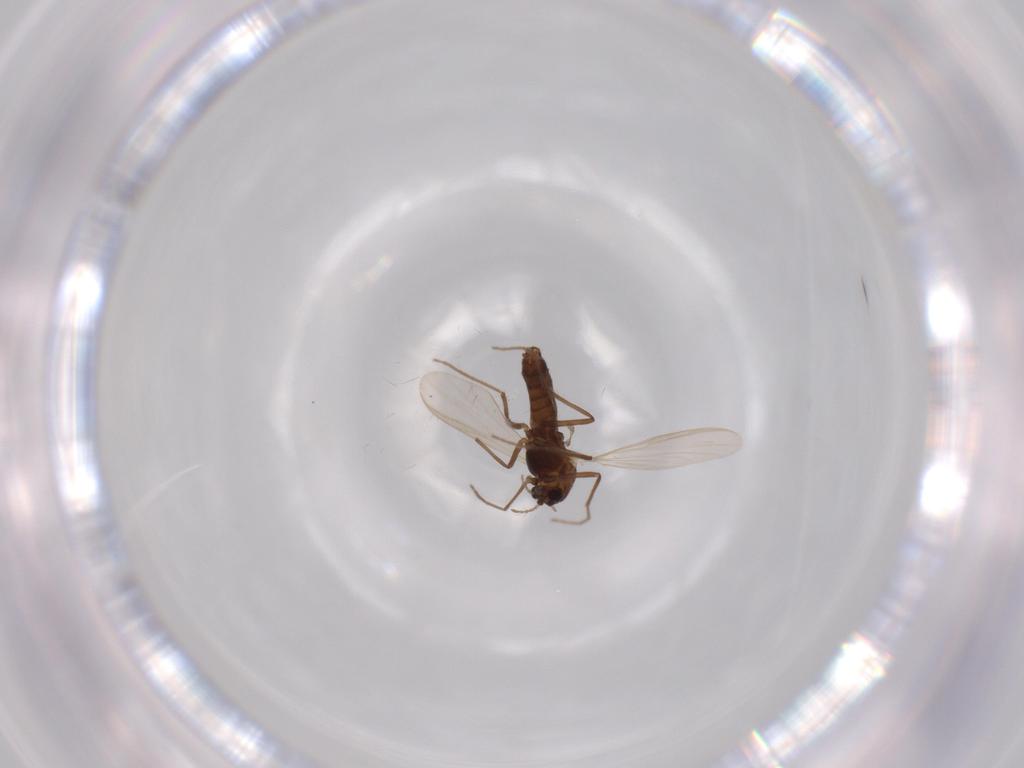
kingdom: Animalia
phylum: Arthropoda
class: Insecta
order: Diptera
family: Chironomidae
